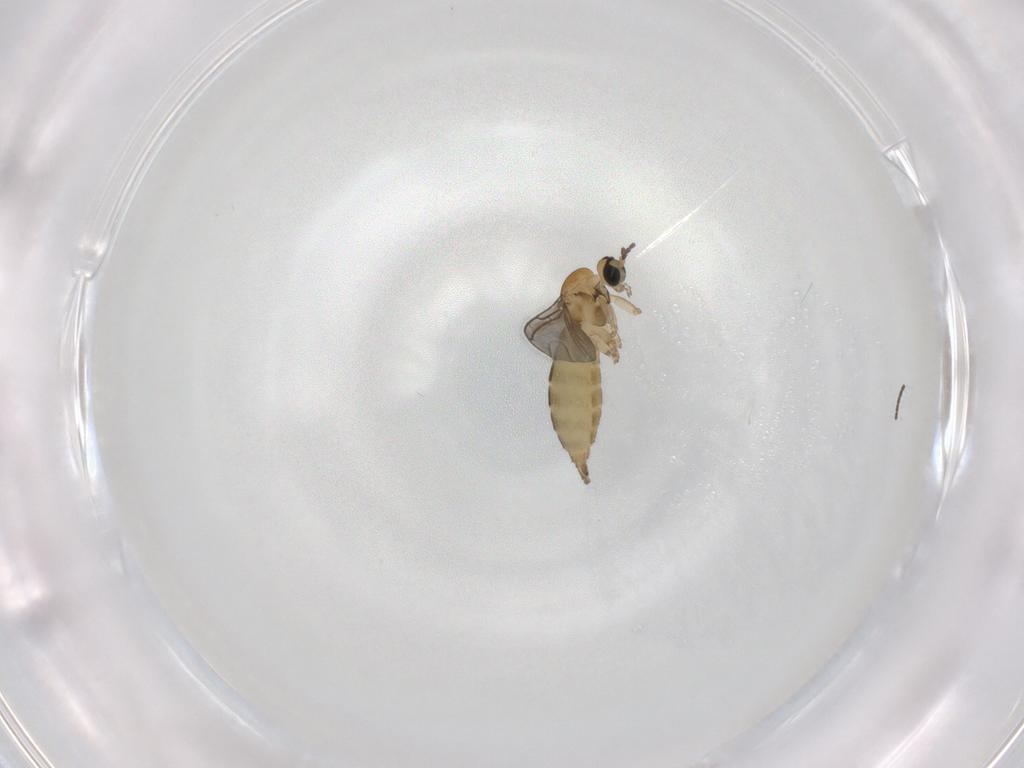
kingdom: Animalia
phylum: Arthropoda
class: Insecta
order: Diptera
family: Sciaridae
